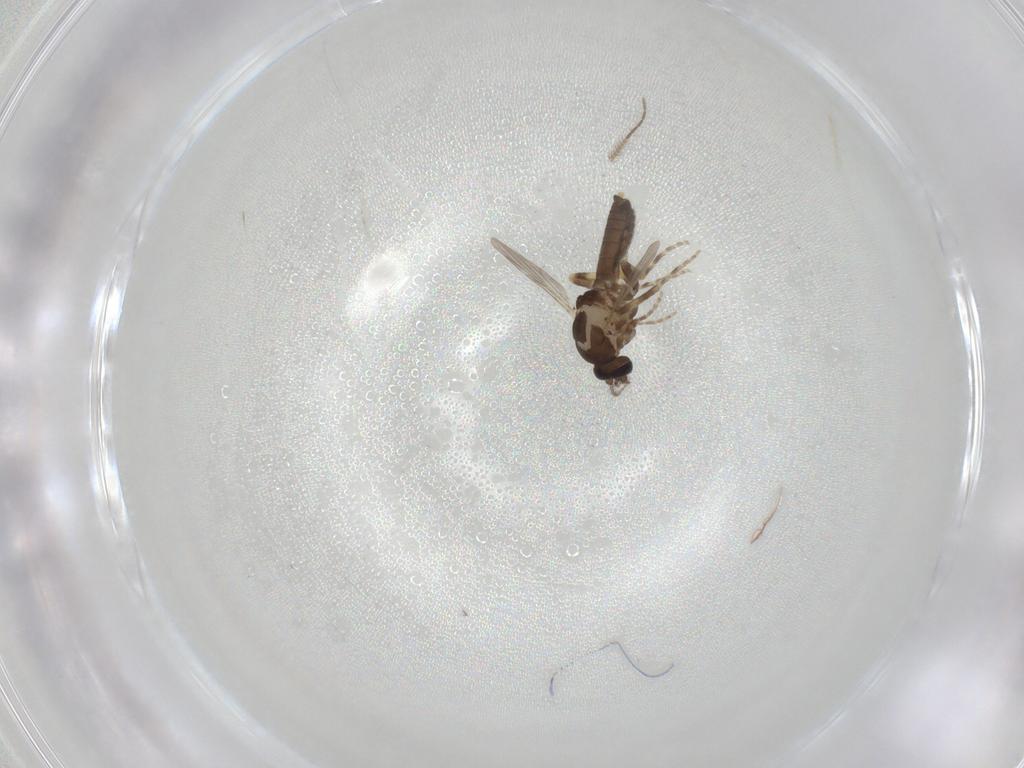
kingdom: Animalia
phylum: Arthropoda
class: Insecta
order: Diptera
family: Ceratopogonidae
